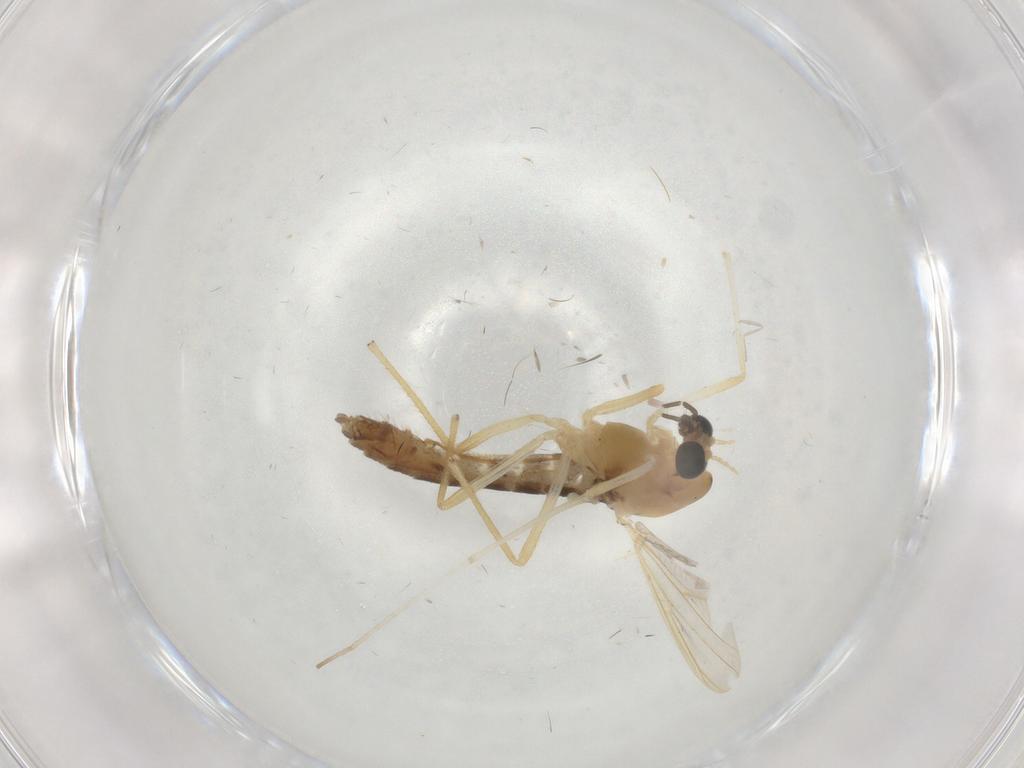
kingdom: Animalia
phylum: Arthropoda
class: Insecta
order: Diptera
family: Chironomidae
